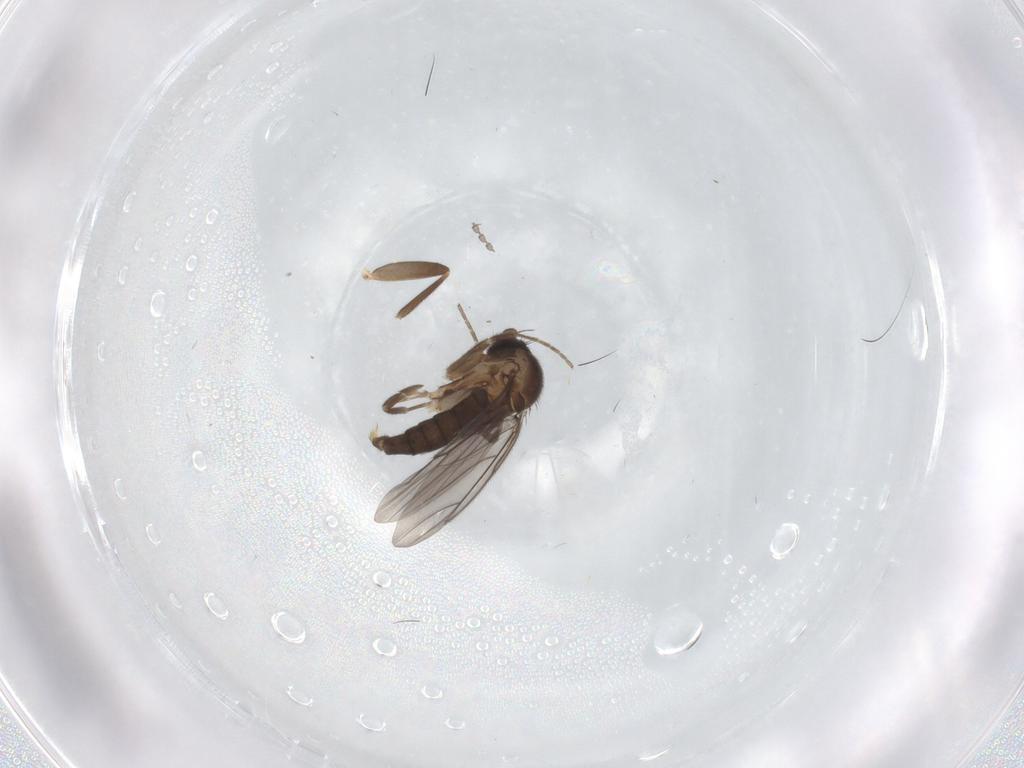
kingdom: Animalia
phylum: Arthropoda
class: Insecta
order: Diptera
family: Cecidomyiidae
